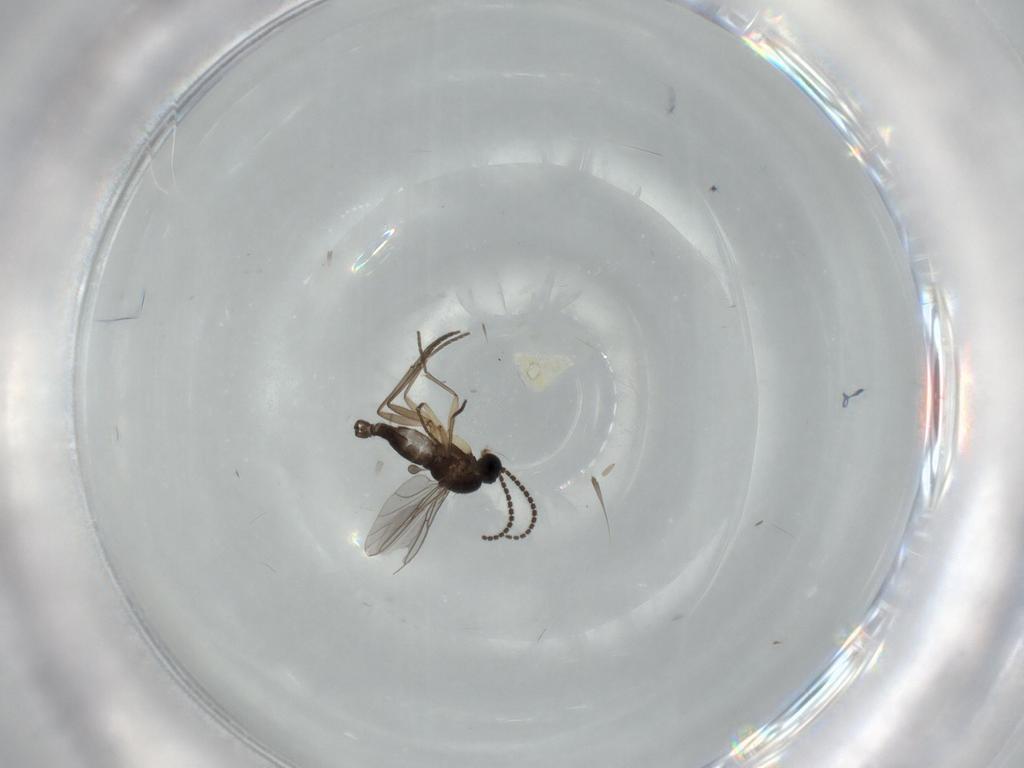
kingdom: Animalia
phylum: Arthropoda
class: Insecta
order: Diptera
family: Sciaridae
